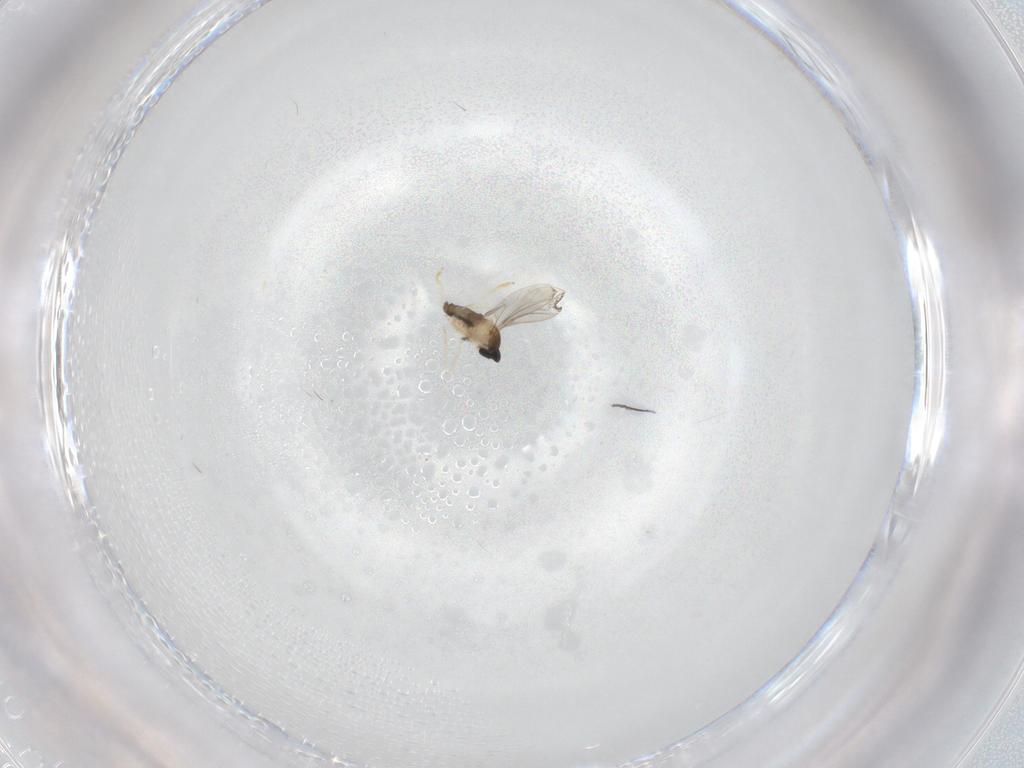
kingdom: Animalia
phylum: Arthropoda
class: Insecta
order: Diptera
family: Cecidomyiidae
